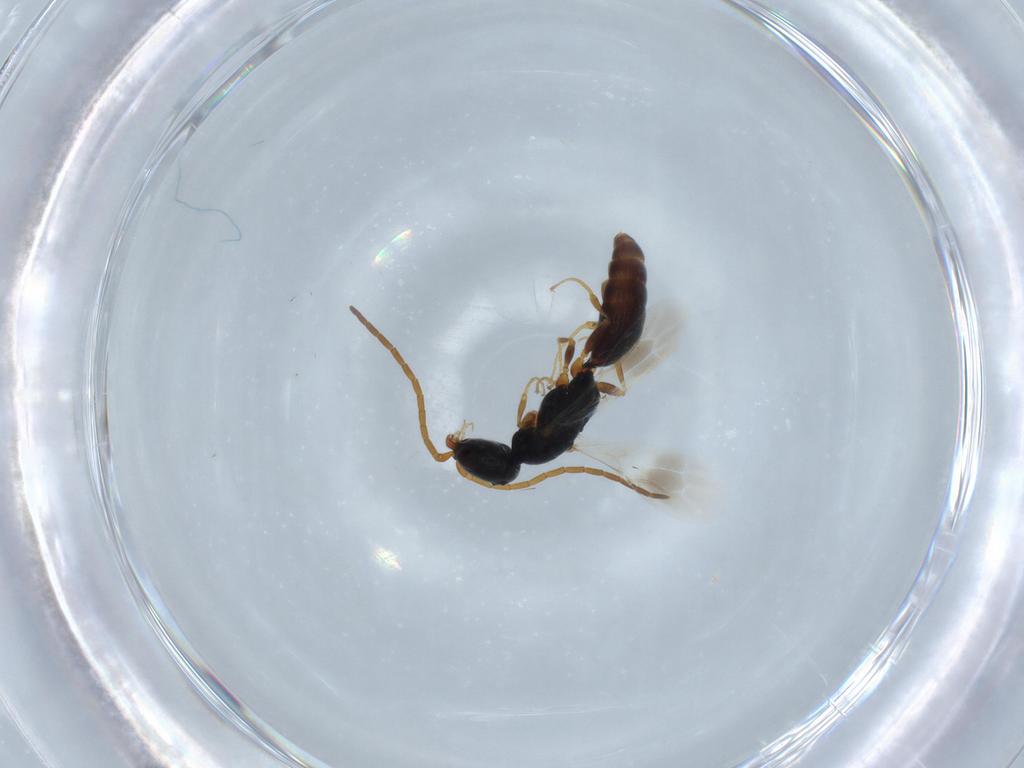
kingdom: Animalia
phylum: Arthropoda
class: Insecta
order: Hymenoptera
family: Bethylidae
